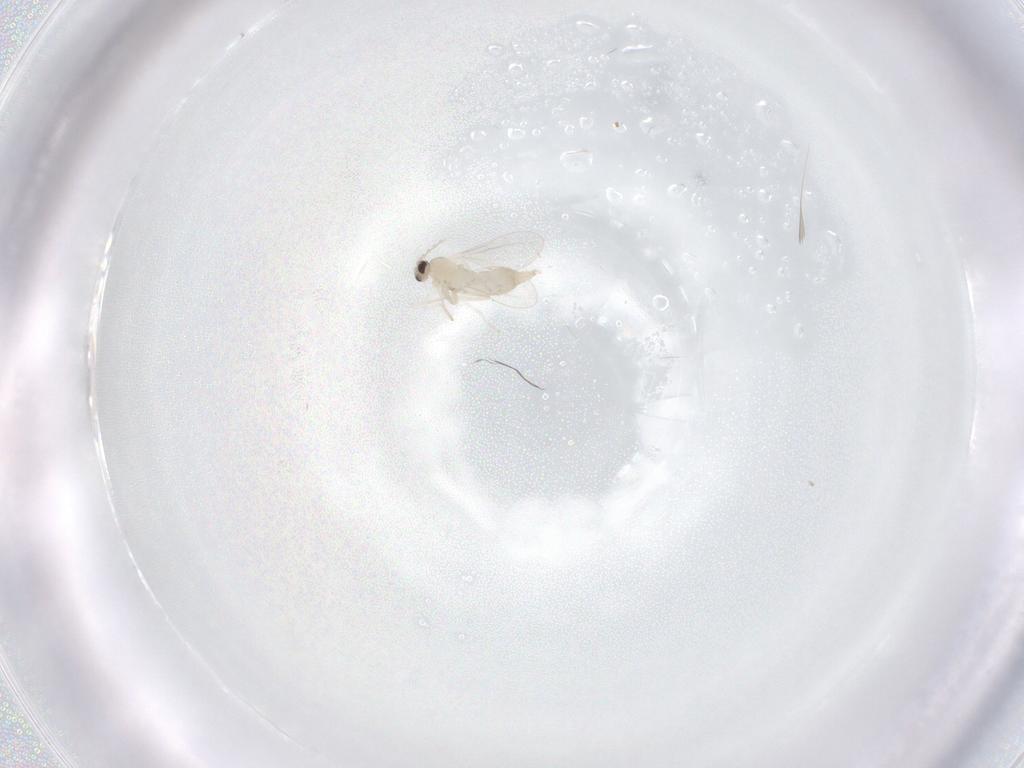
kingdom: Animalia
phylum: Arthropoda
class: Insecta
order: Diptera
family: Cecidomyiidae
